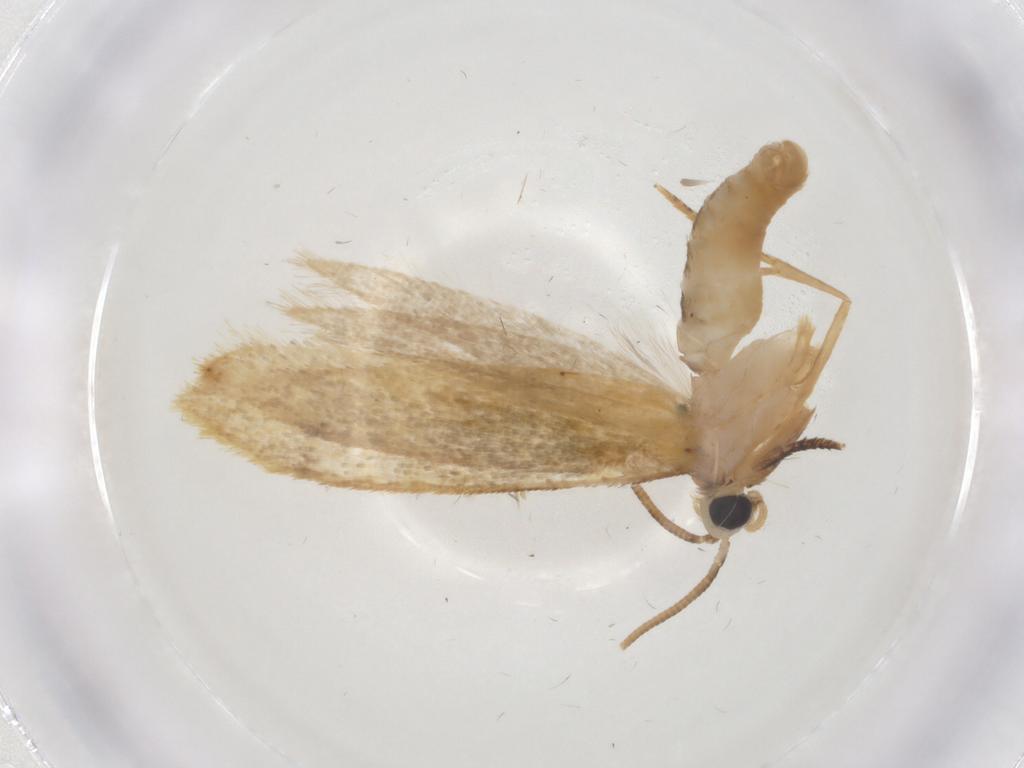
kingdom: Animalia
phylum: Arthropoda
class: Insecta
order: Lepidoptera
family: Tineidae
